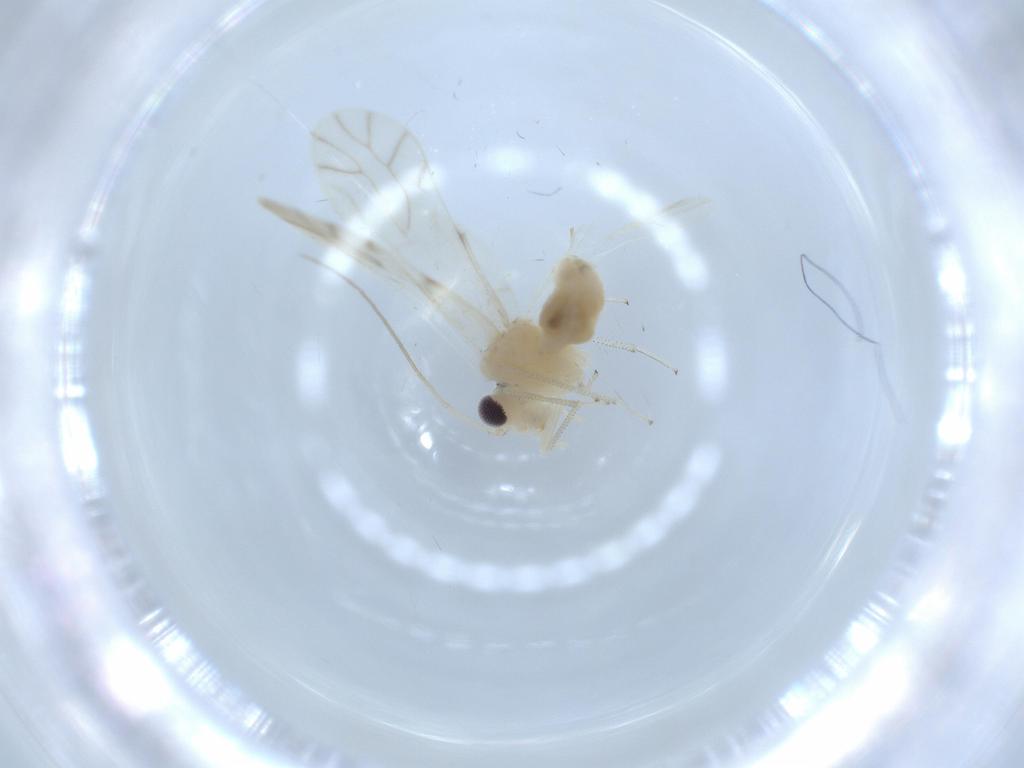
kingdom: Animalia
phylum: Arthropoda
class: Insecta
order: Psocodea
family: Caeciliusidae
